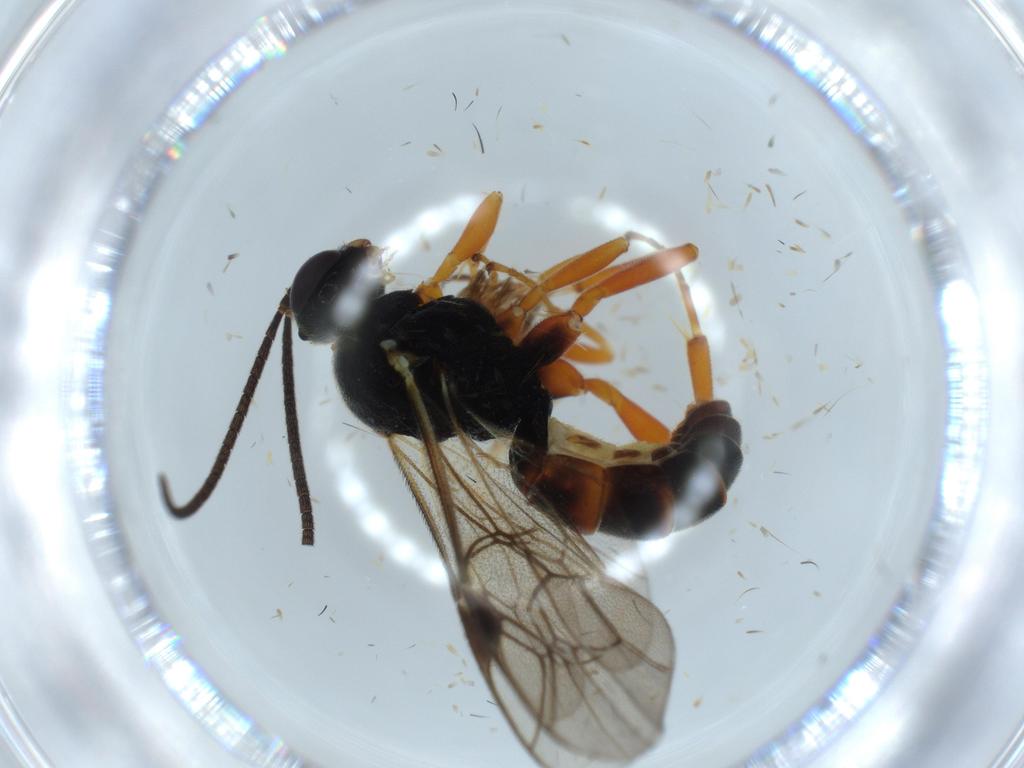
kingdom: Animalia
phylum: Arthropoda
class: Insecta
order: Hymenoptera
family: Ichneumonidae
